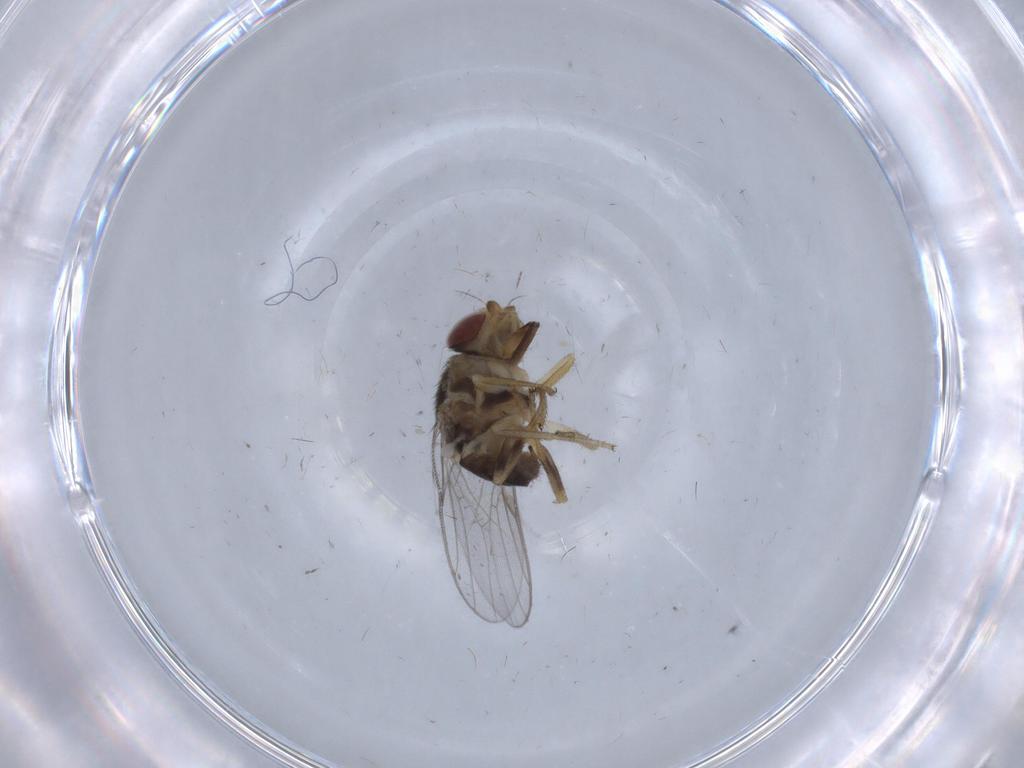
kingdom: Animalia
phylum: Arthropoda
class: Insecta
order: Diptera
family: Chloropidae
